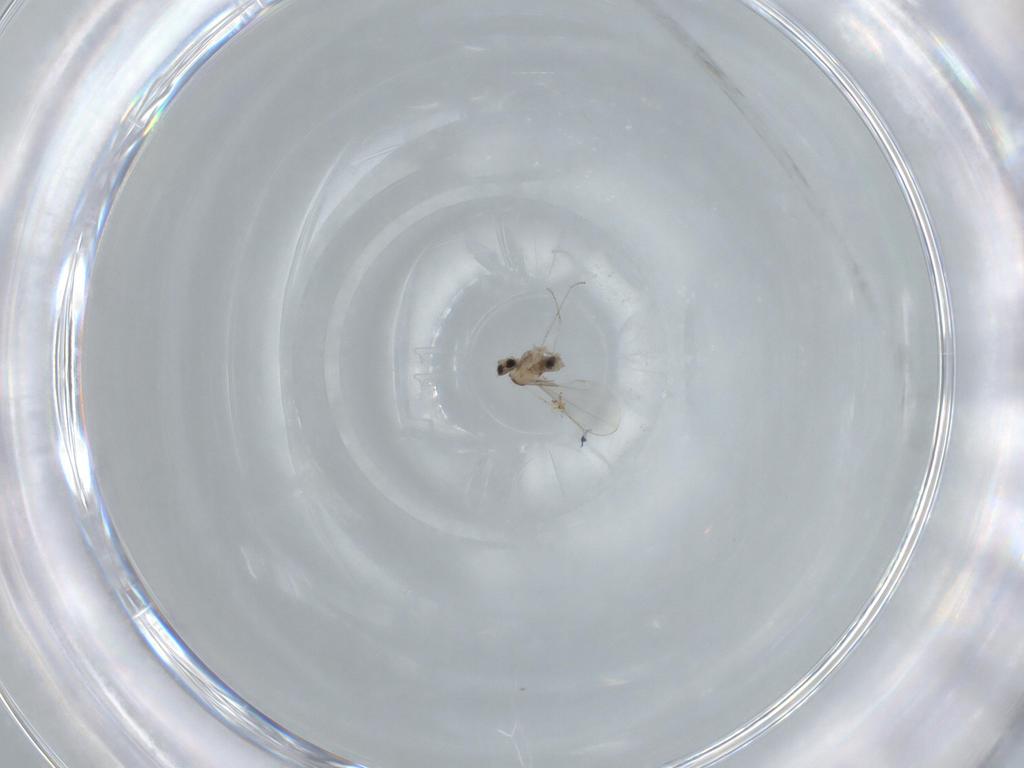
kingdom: Animalia
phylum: Arthropoda
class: Insecta
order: Diptera
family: Cecidomyiidae
